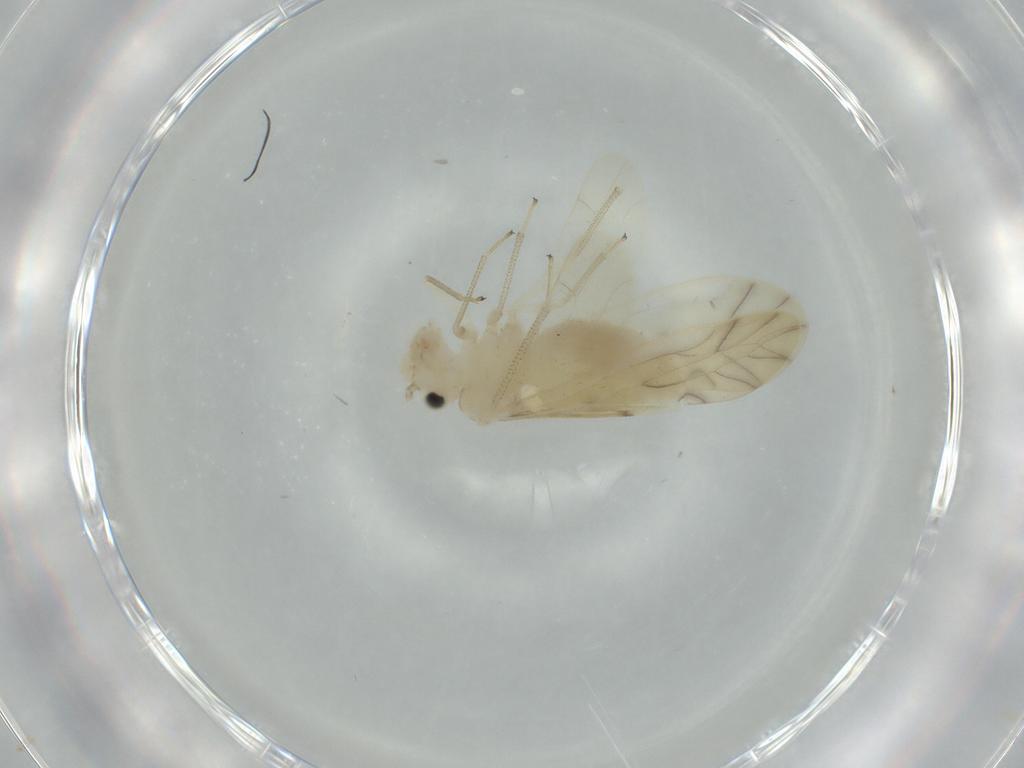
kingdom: Animalia
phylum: Arthropoda
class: Insecta
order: Psocodea
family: Caeciliusidae
